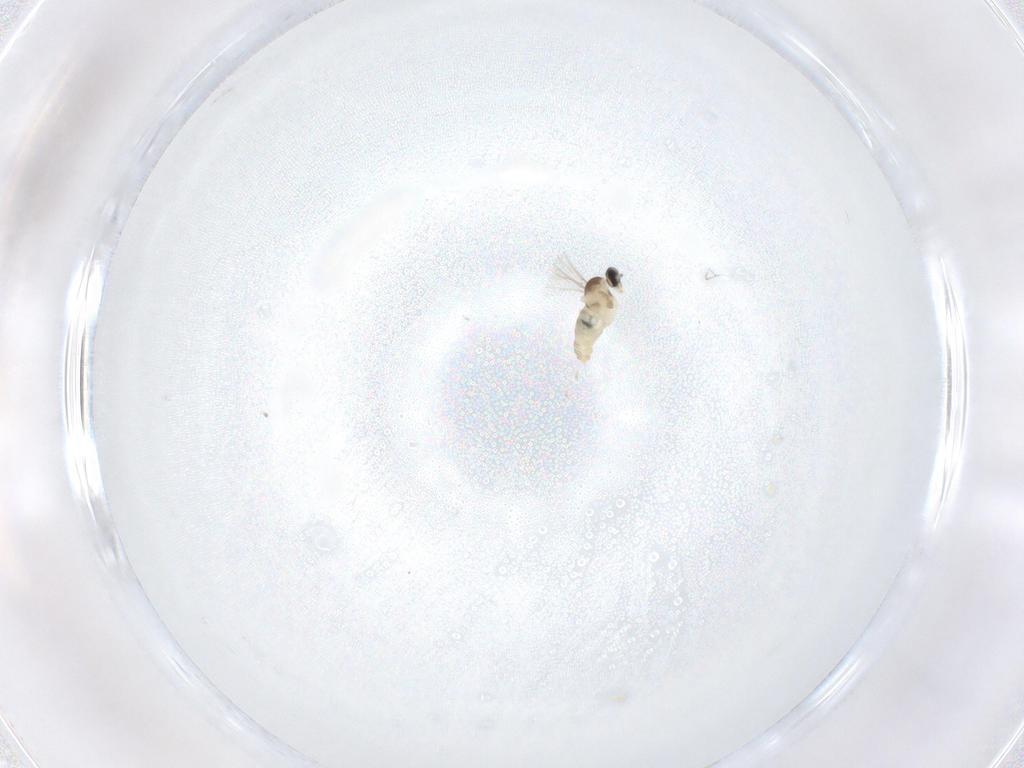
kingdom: Animalia
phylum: Arthropoda
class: Insecta
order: Diptera
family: Cecidomyiidae
